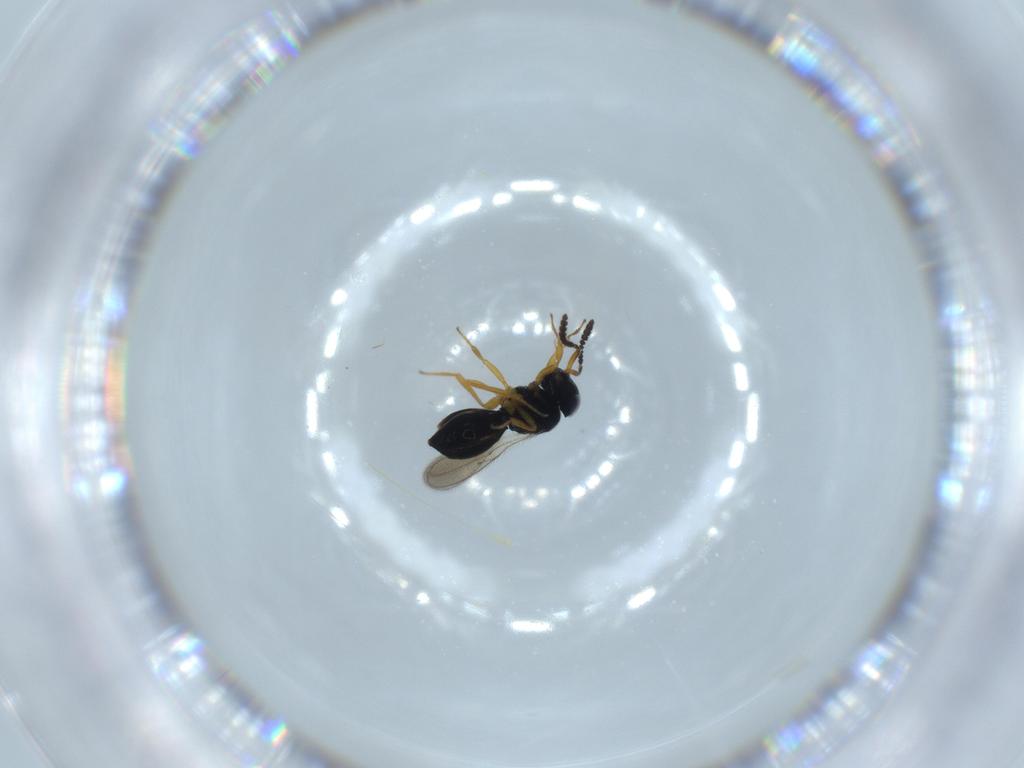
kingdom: Animalia
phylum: Arthropoda
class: Insecta
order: Hymenoptera
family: Scelionidae
